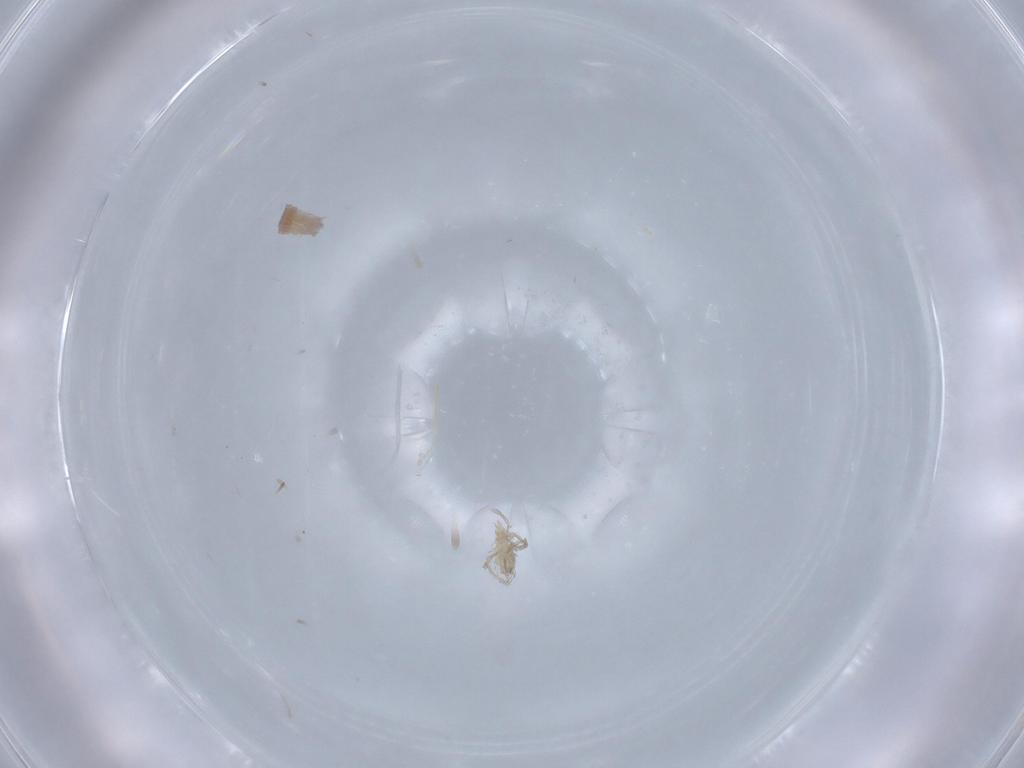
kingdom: Animalia
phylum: Arthropoda
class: Arachnida
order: Trombidiformes
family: Erythraeidae
